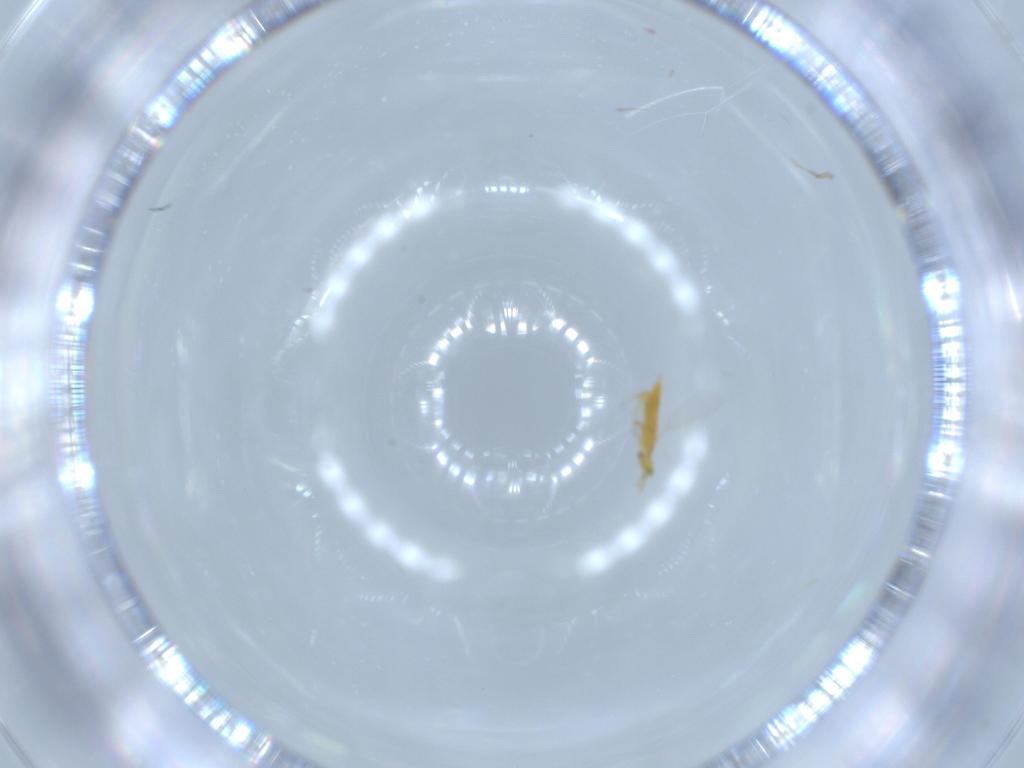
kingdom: Animalia
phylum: Arthropoda
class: Insecta
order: Hymenoptera
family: Aphelinidae
